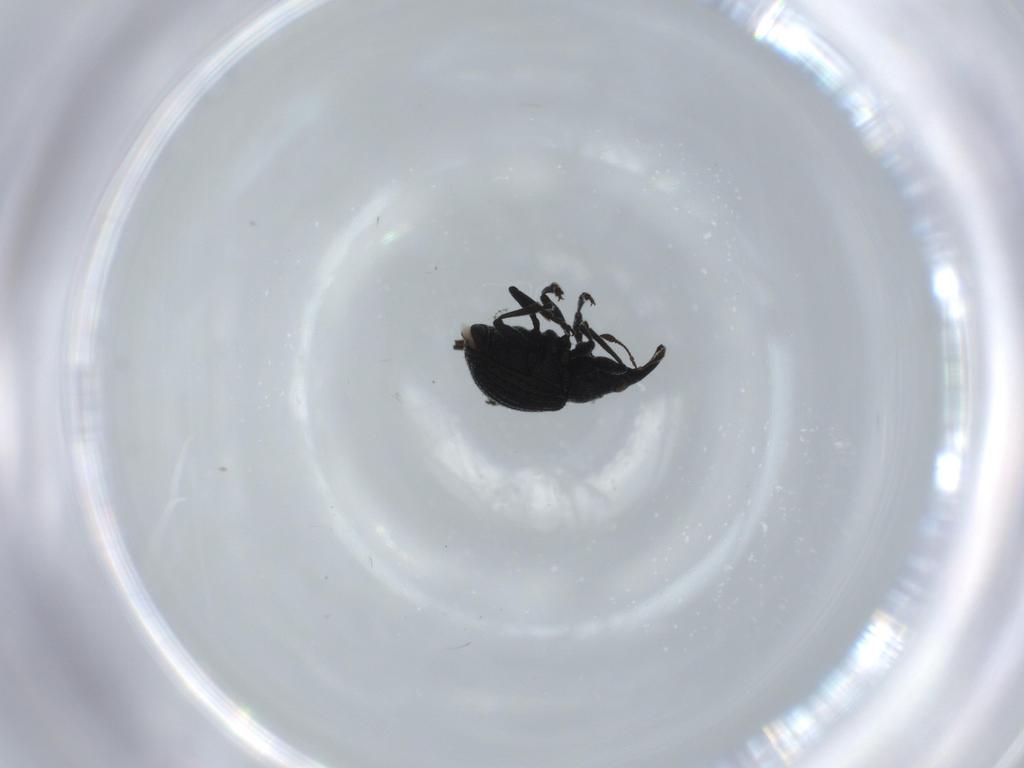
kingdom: Animalia
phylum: Arthropoda
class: Insecta
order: Coleoptera
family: Brentidae
